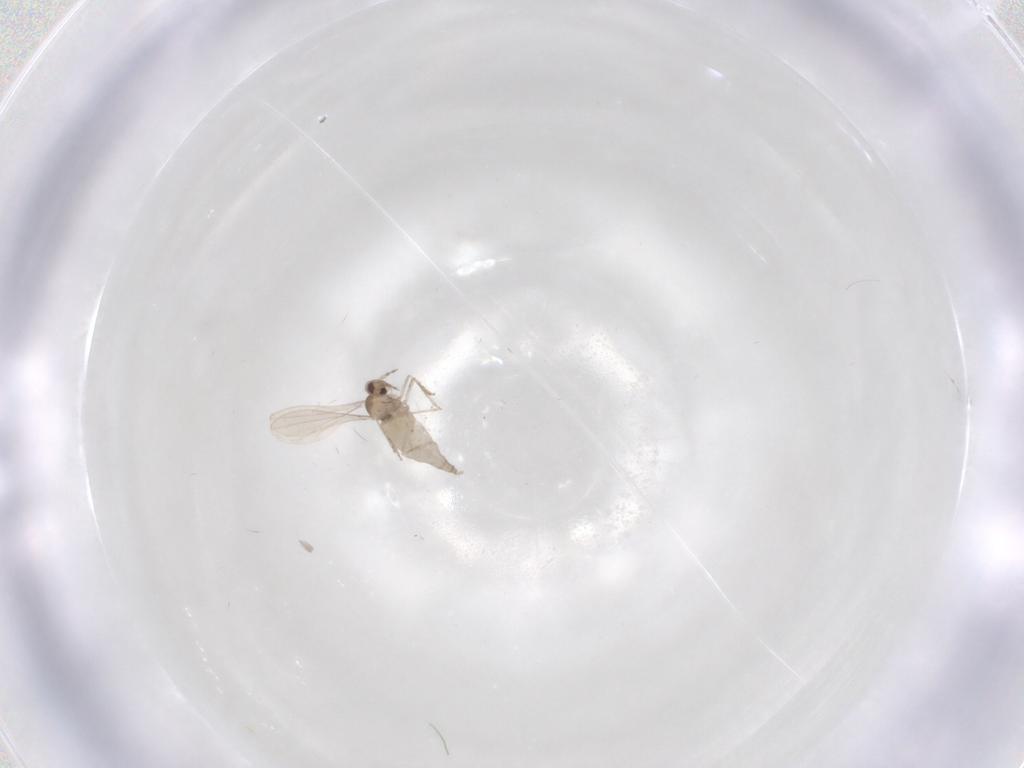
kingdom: Animalia
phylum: Arthropoda
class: Insecta
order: Diptera
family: Cecidomyiidae
